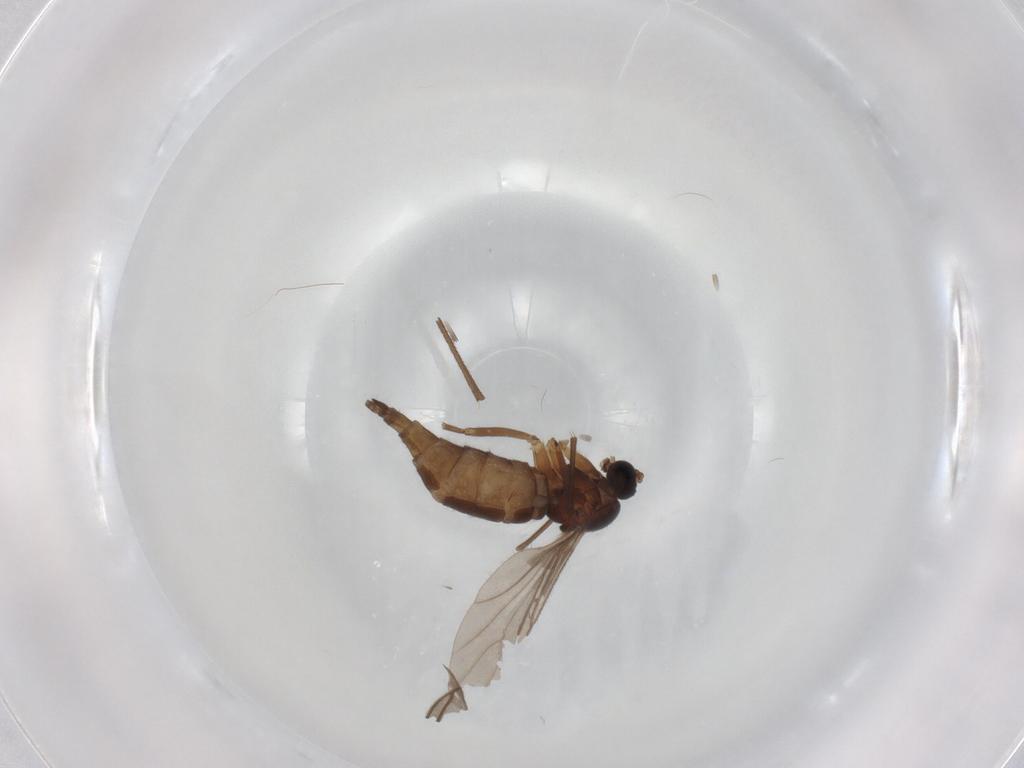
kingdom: Animalia
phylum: Arthropoda
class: Insecta
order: Diptera
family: Sciaridae
